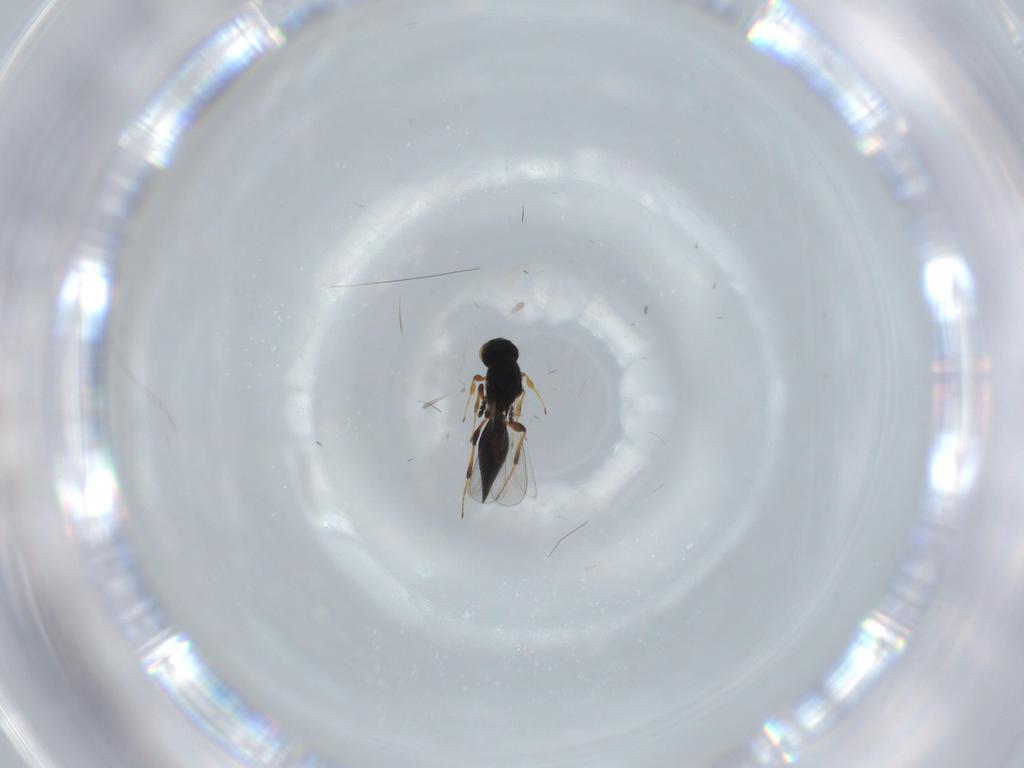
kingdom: Animalia
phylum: Arthropoda
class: Insecta
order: Hymenoptera
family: Platygastridae
